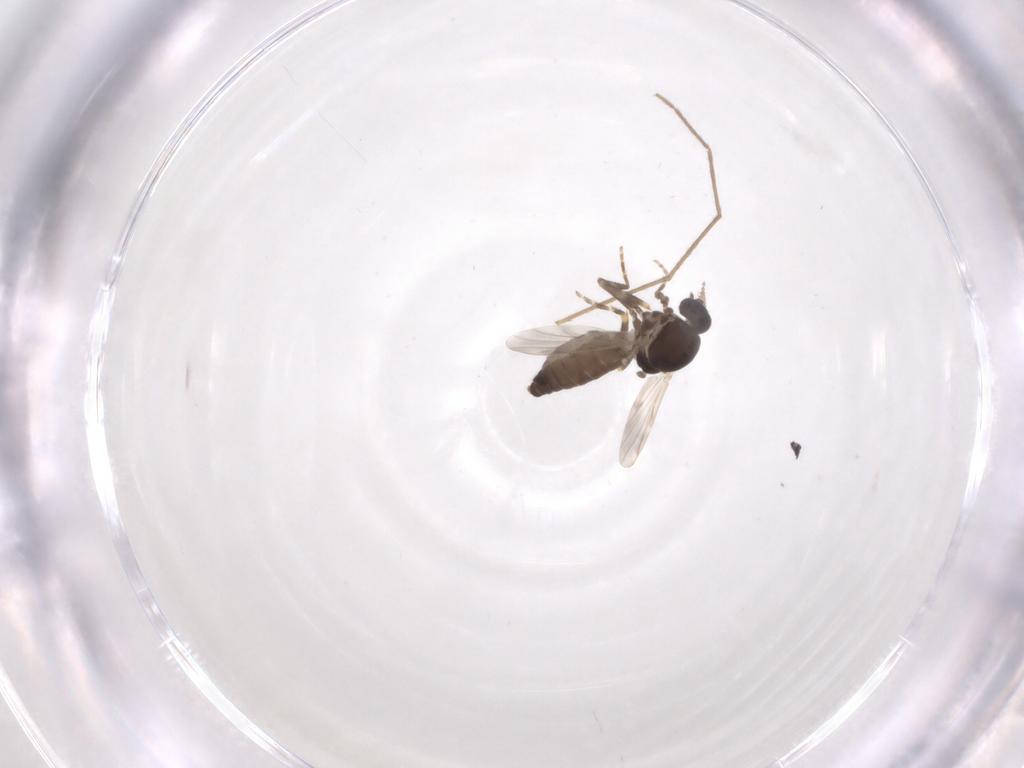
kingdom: Animalia
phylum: Arthropoda
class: Insecta
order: Diptera
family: Ceratopogonidae
